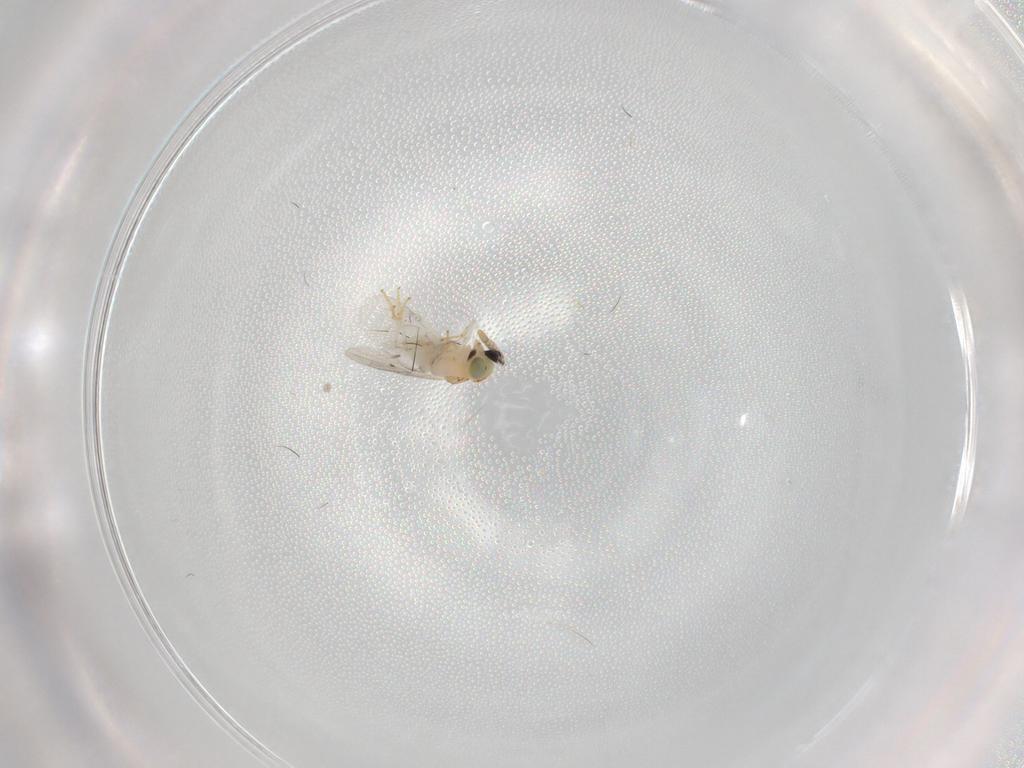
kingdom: Animalia
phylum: Arthropoda
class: Insecta
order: Hymenoptera
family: Encyrtidae
